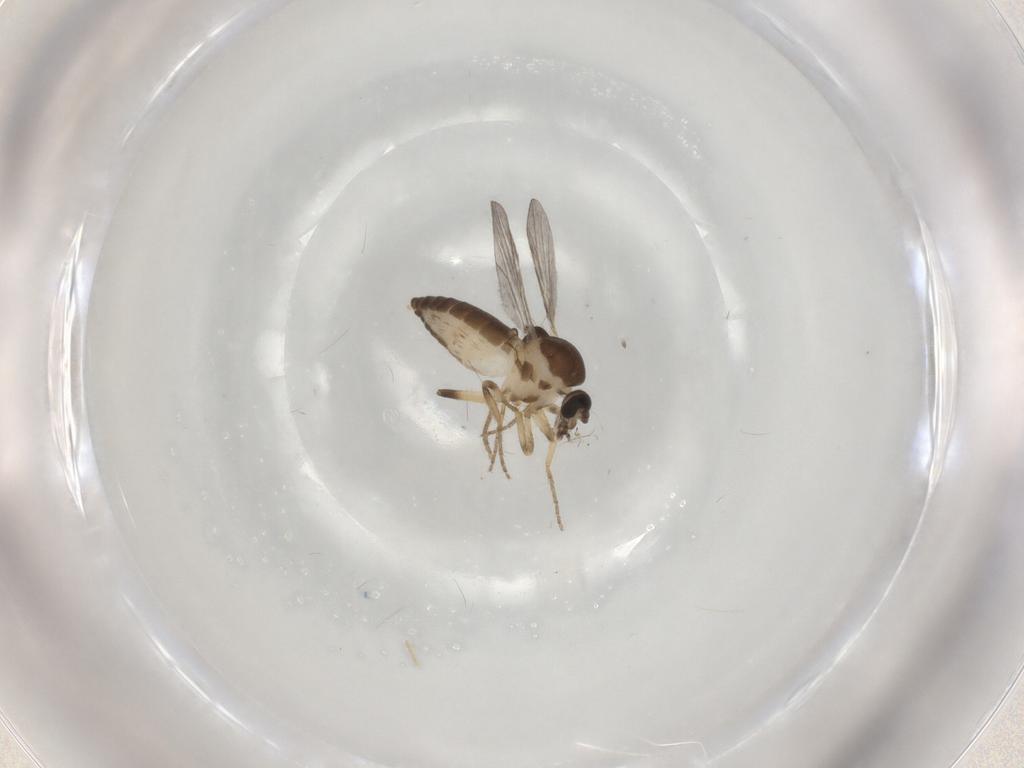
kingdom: Animalia
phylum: Arthropoda
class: Insecta
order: Diptera
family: Ceratopogonidae
